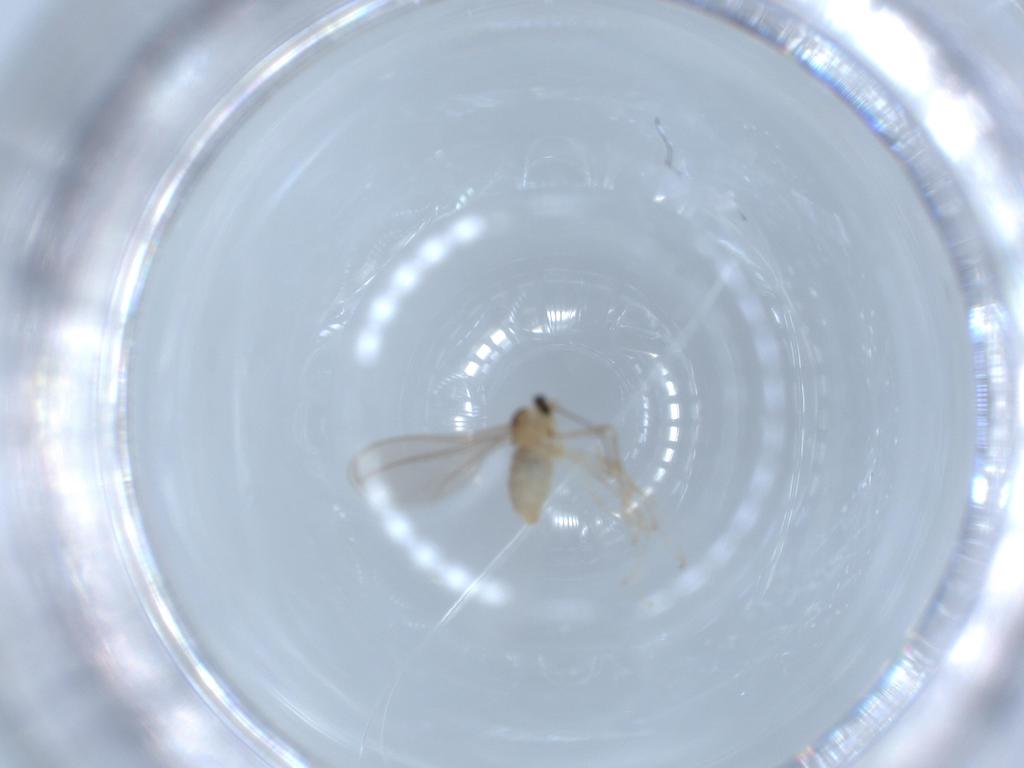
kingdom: Animalia
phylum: Arthropoda
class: Insecta
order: Diptera
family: Cecidomyiidae
